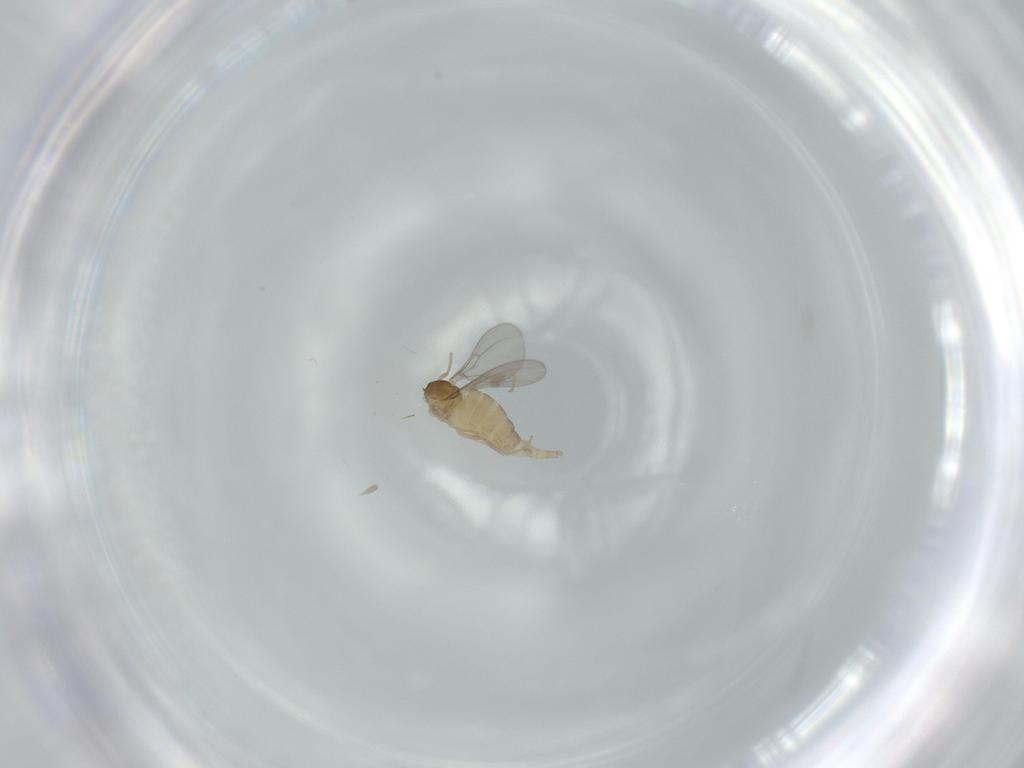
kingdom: Animalia
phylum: Arthropoda
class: Insecta
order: Diptera
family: Cecidomyiidae
